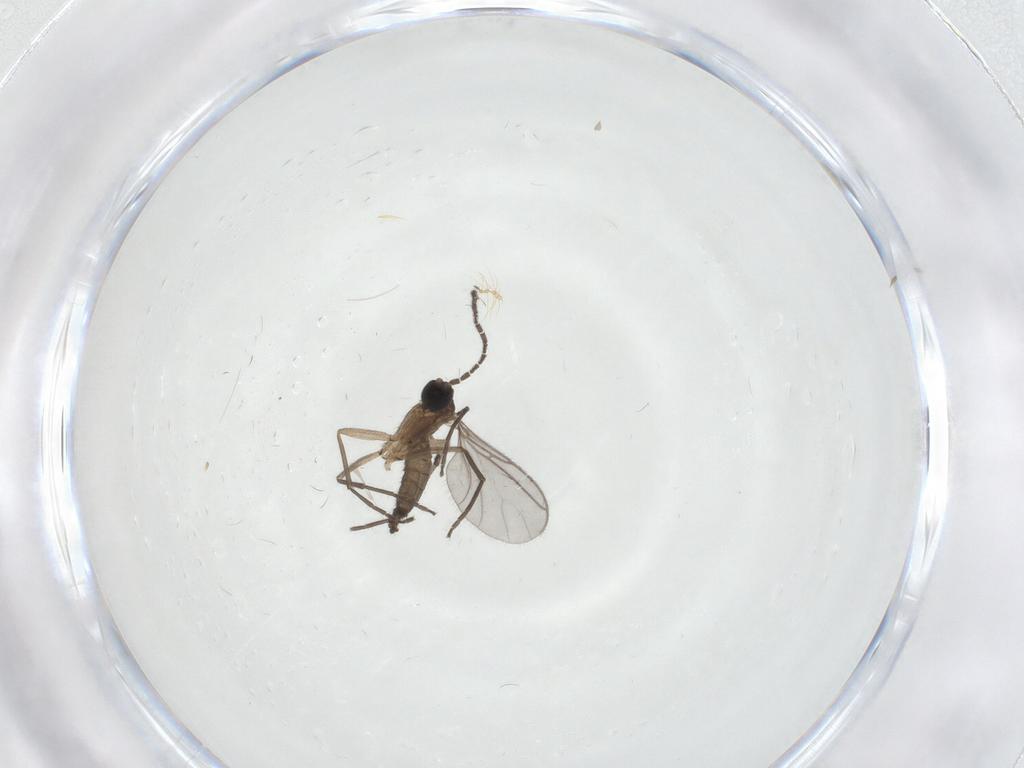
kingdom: Animalia
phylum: Arthropoda
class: Insecta
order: Diptera
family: Sciaridae
